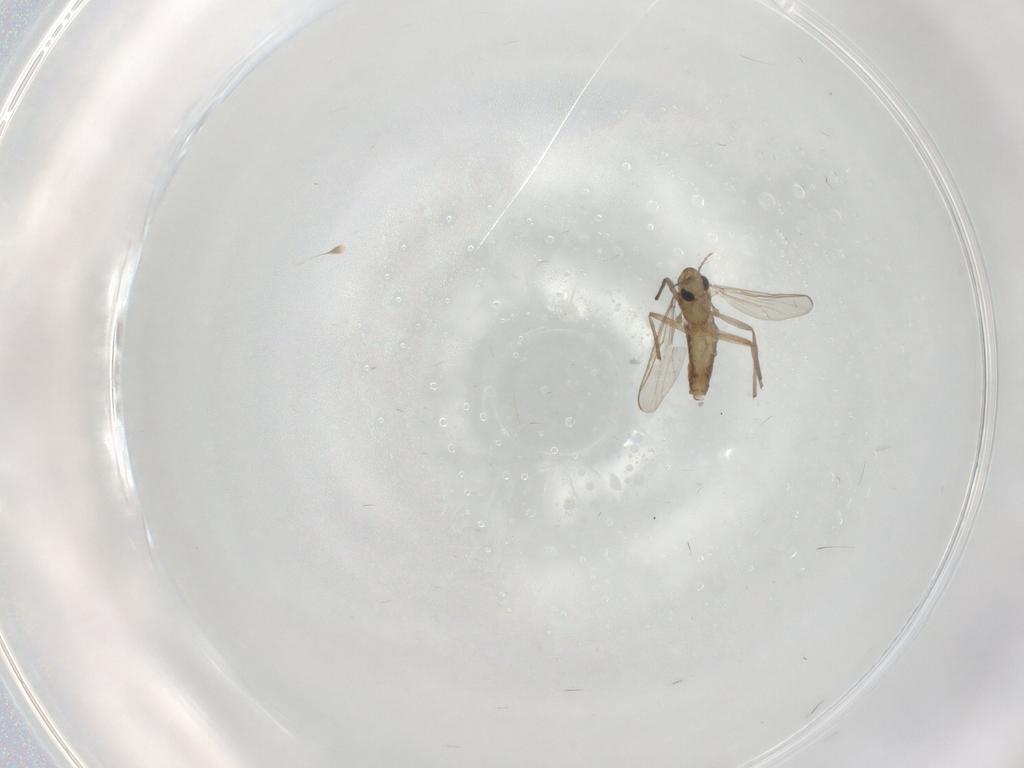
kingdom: Animalia
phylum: Arthropoda
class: Insecta
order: Diptera
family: Chironomidae
